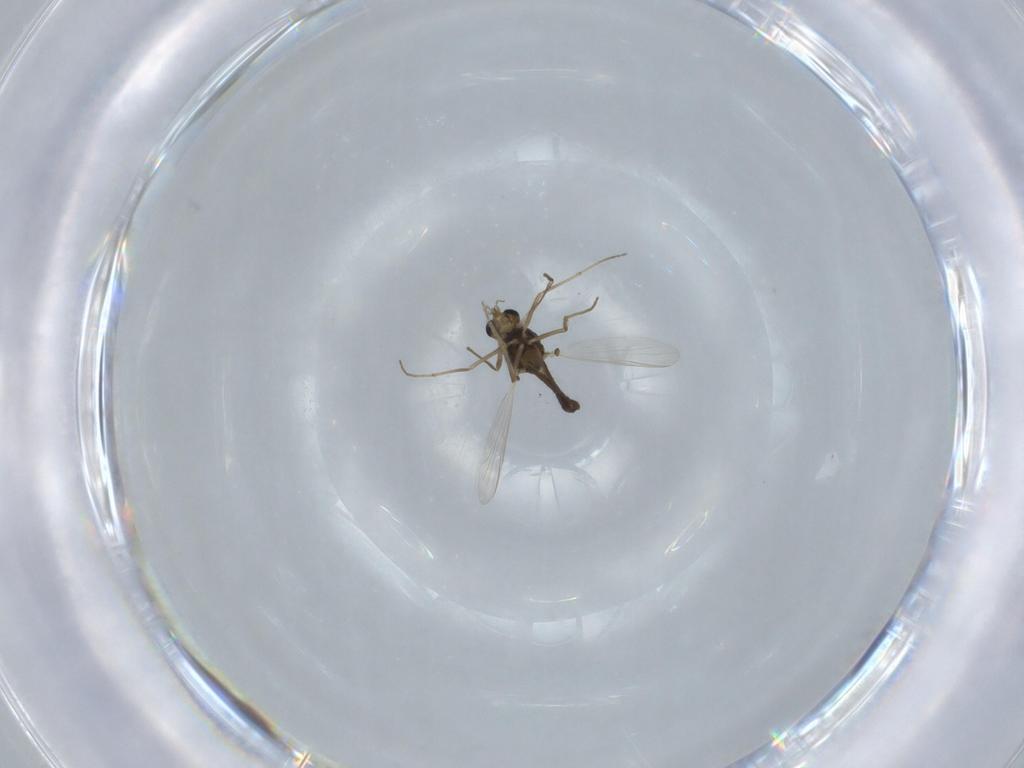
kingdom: Animalia
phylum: Arthropoda
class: Insecta
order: Diptera
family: Chironomidae
